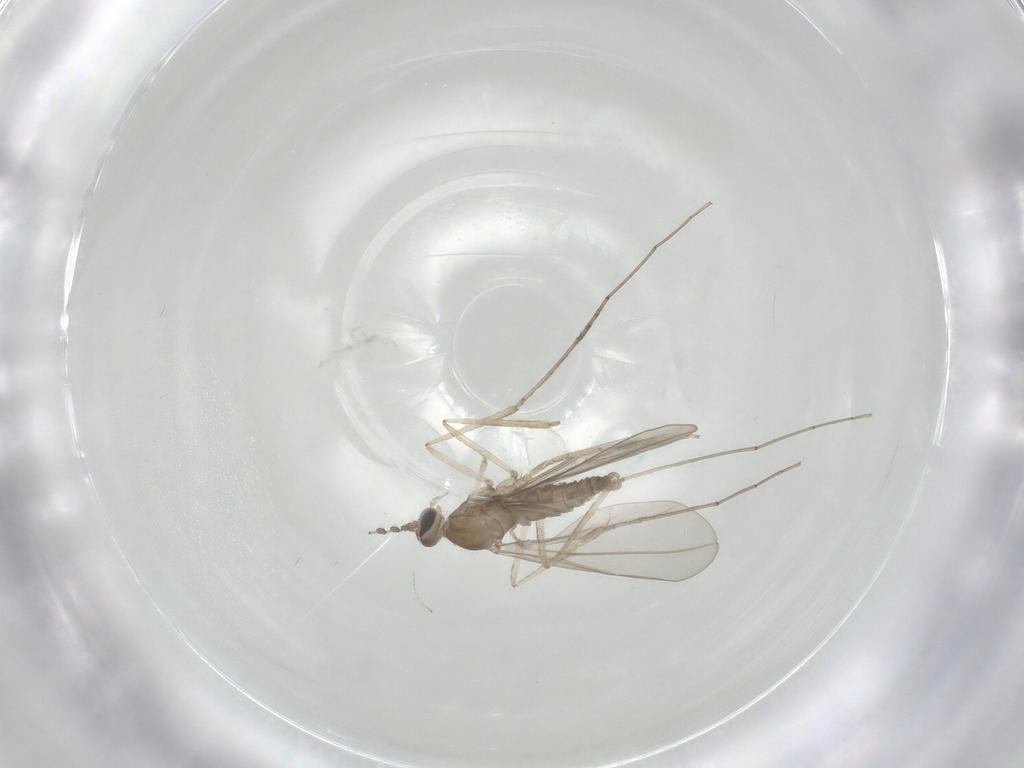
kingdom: Animalia
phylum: Arthropoda
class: Insecta
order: Diptera
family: Cecidomyiidae
